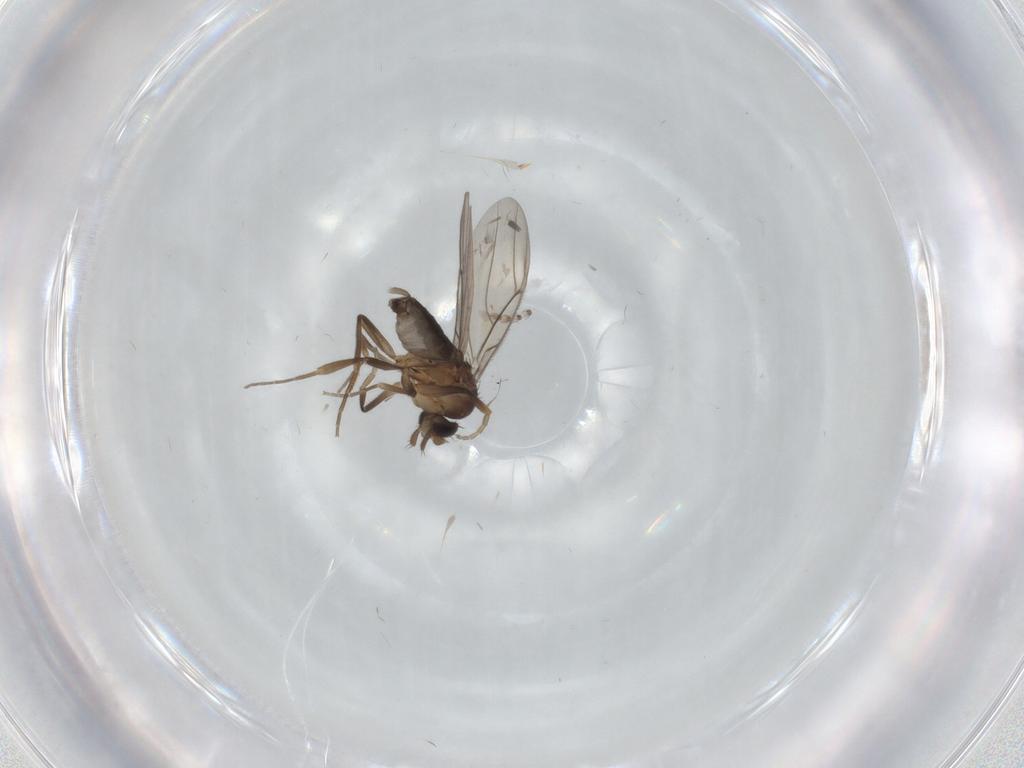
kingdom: Animalia
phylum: Arthropoda
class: Insecta
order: Diptera
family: Phoridae
